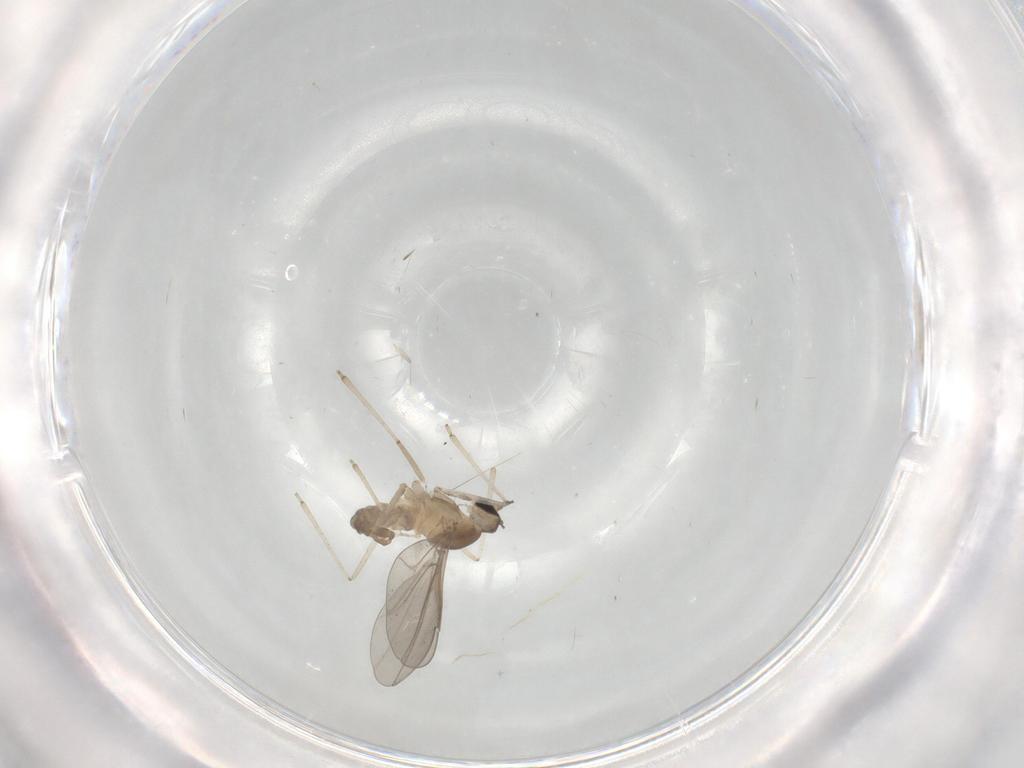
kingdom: Animalia
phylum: Arthropoda
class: Insecta
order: Diptera
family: Cecidomyiidae
